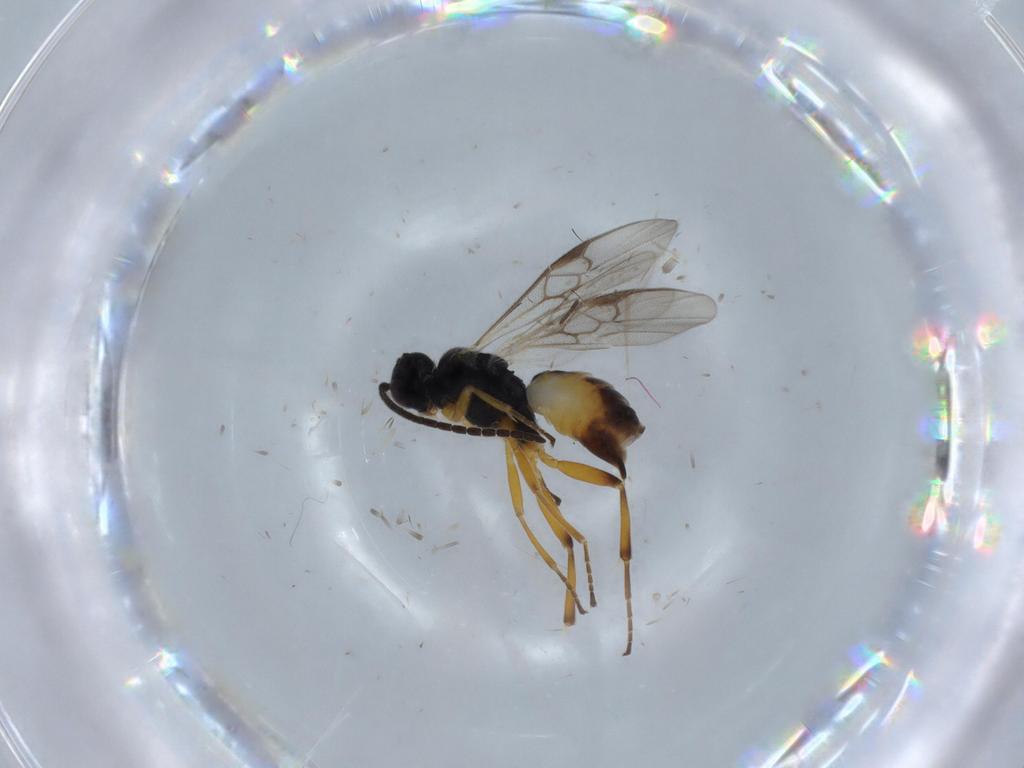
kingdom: Animalia
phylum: Arthropoda
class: Insecta
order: Hymenoptera
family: Braconidae
